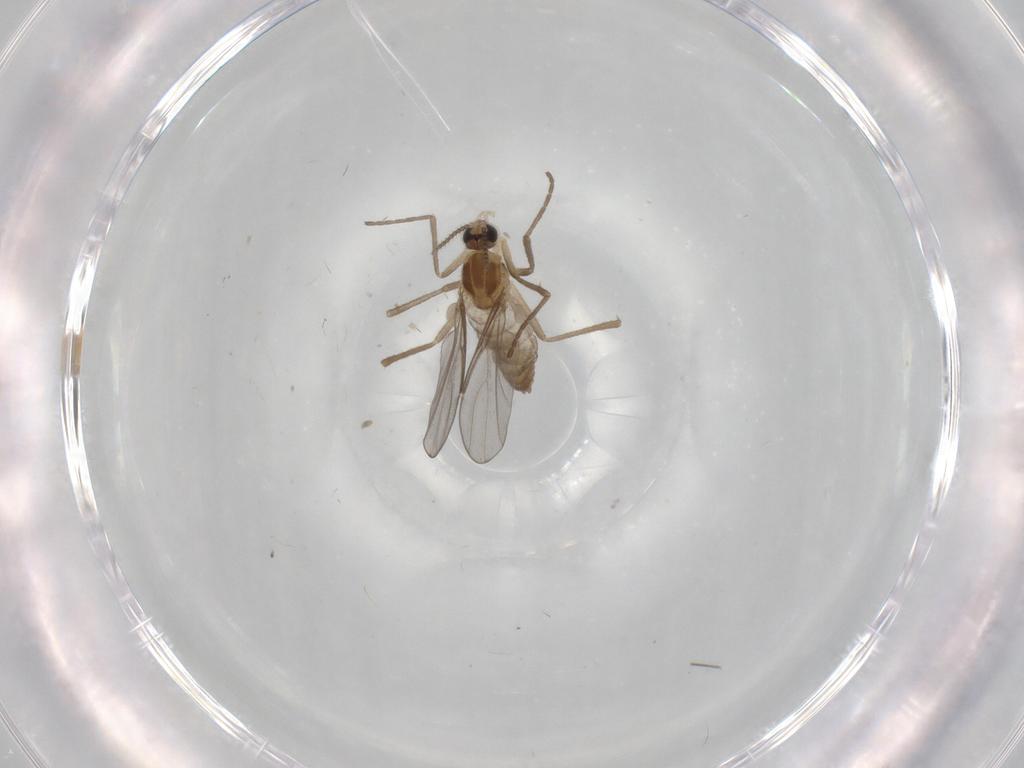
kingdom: Animalia
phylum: Arthropoda
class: Insecta
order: Diptera
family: Cecidomyiidae
